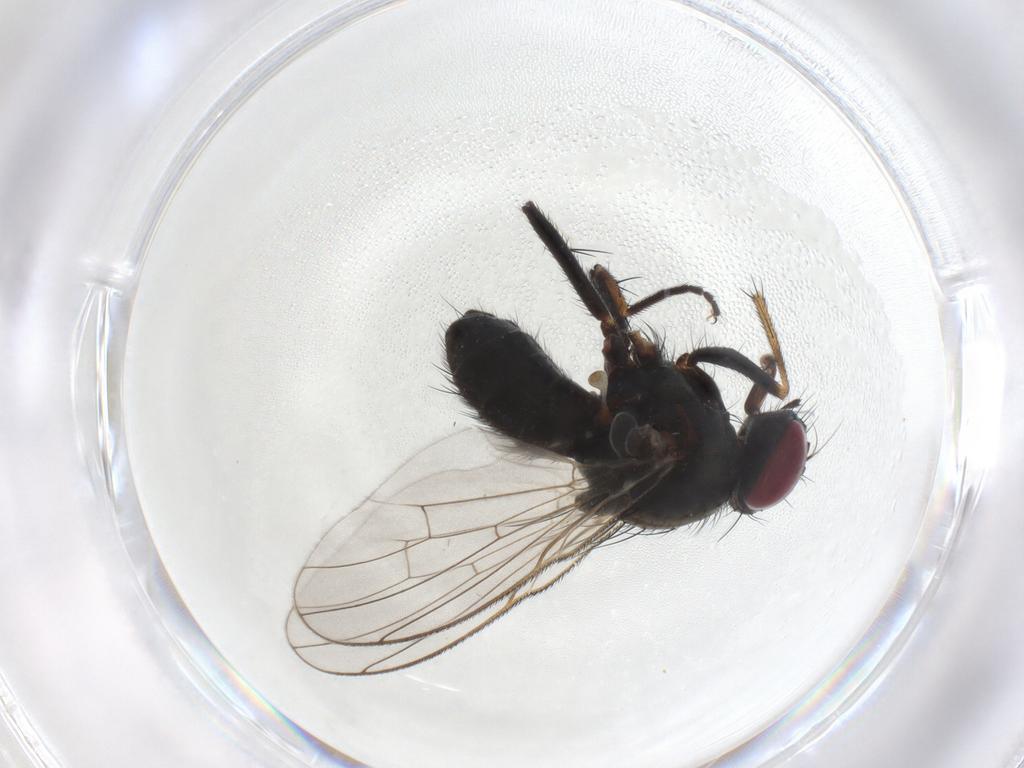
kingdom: Animalia
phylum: Arthropoda
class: Insecta
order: Diptera
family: Muscidae
